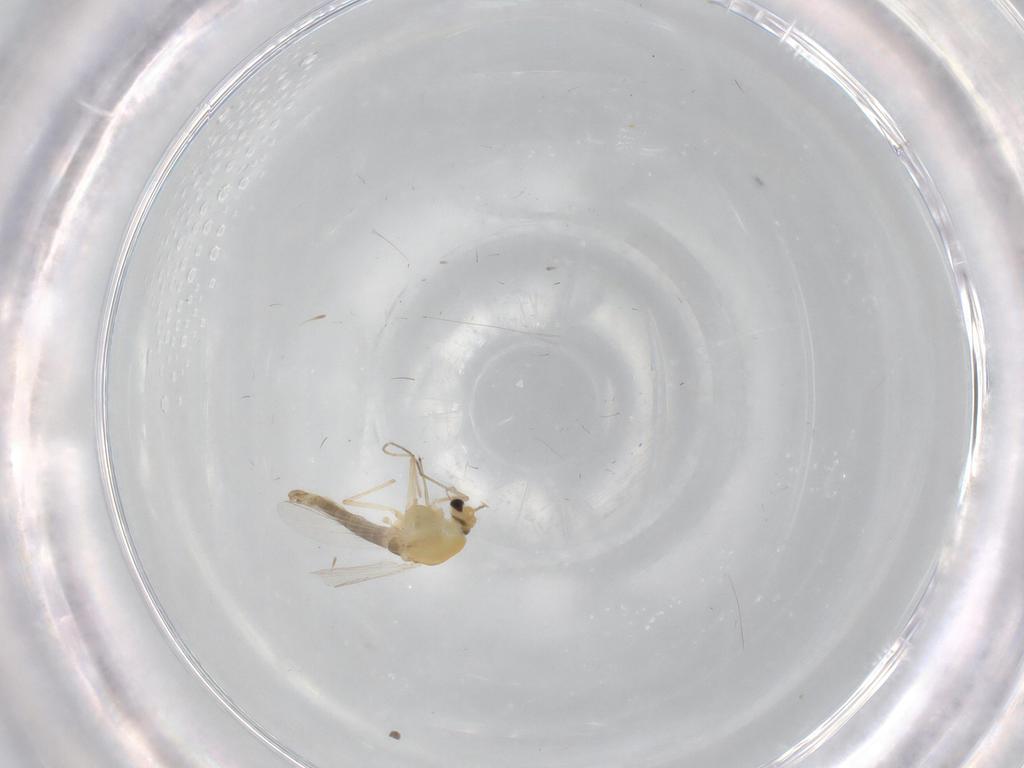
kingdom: Animalia
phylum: Arthropoda
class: Insecta
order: Diptera
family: Chironomidae
